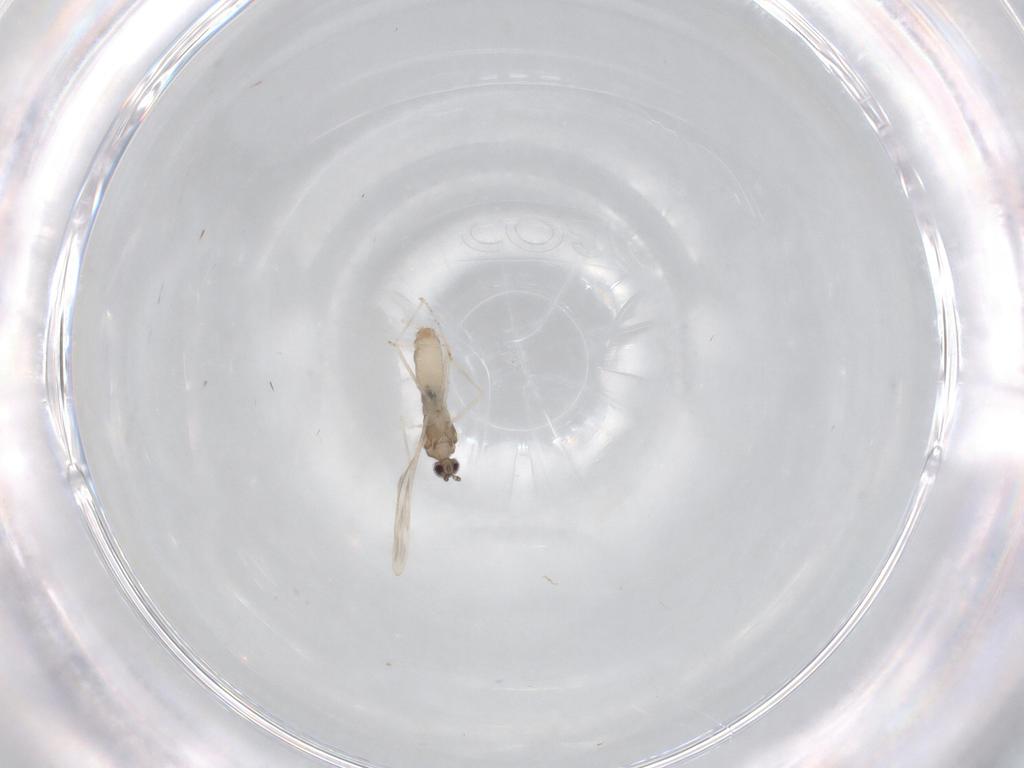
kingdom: Animalia
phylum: Arthropoda
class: Insecta
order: Diptera
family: Cecidomyiidae
